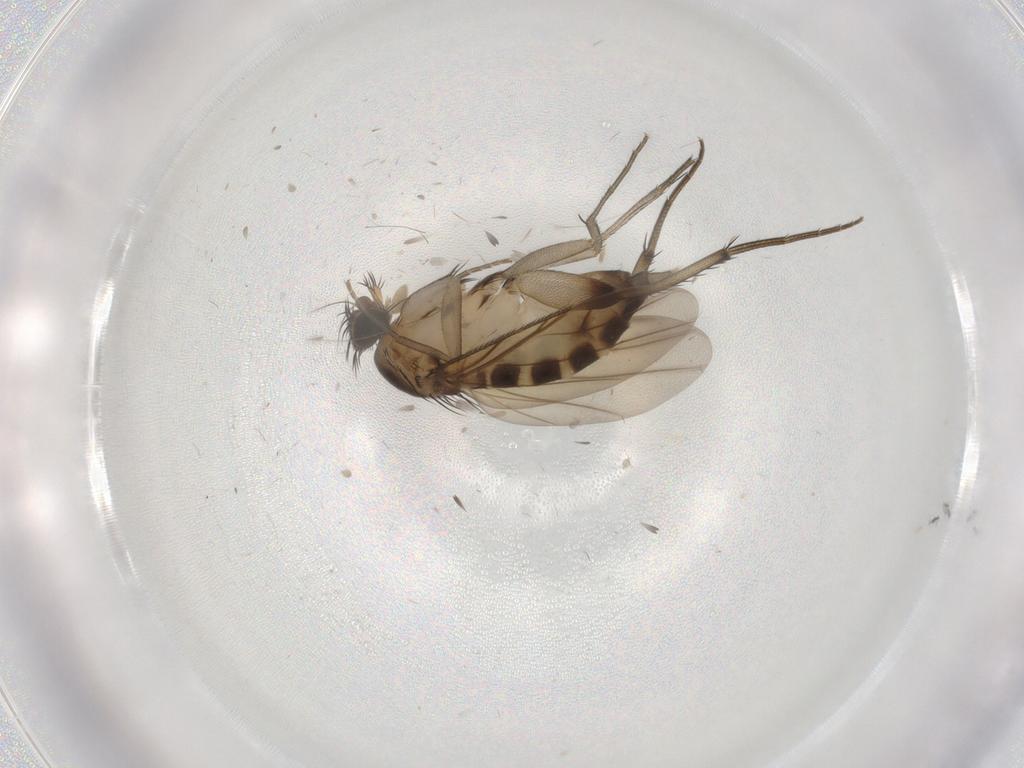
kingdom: Animalia
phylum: Arthropoda
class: Insecta
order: Diptera
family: Phoridae
